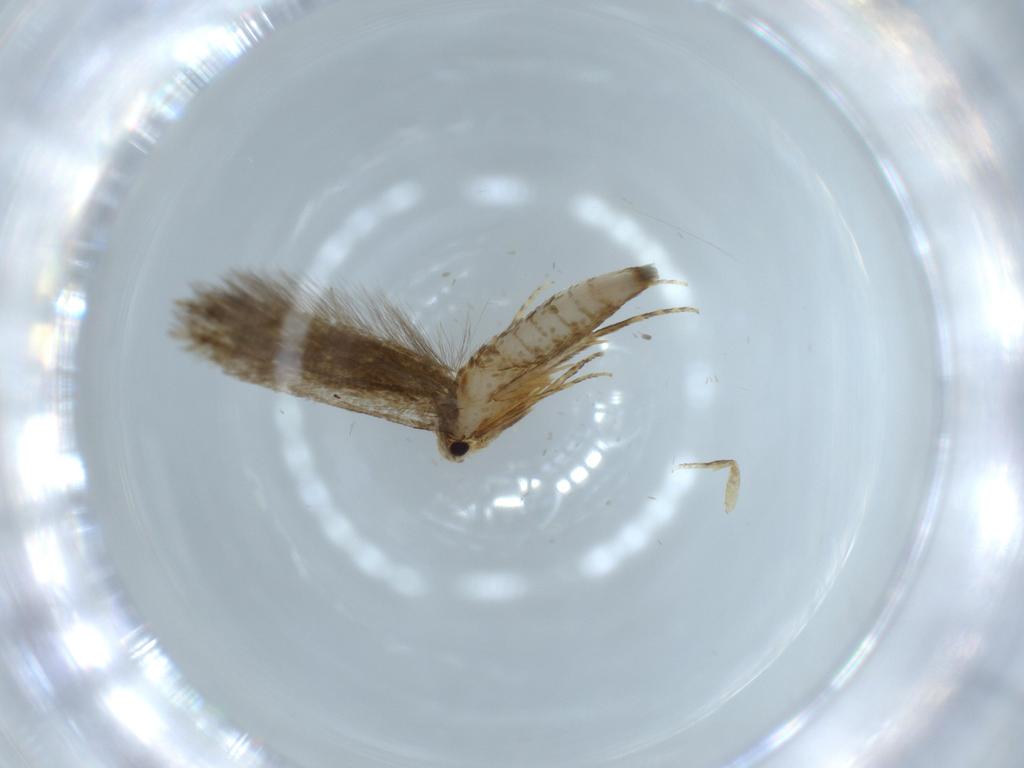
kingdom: Animalia
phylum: Arthropoda
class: Insecta
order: Lepidoptera
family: Tineidae
